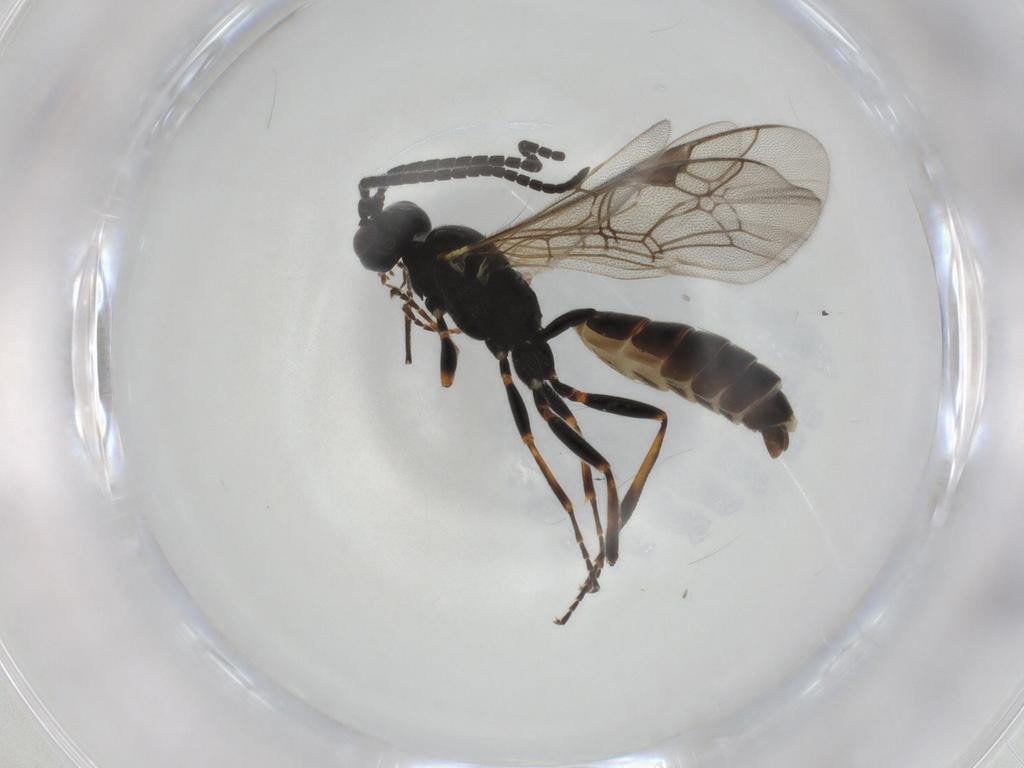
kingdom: Animalia
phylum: Arthropoda
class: Insecta
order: Hymenoptera
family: Ichneumonidae
